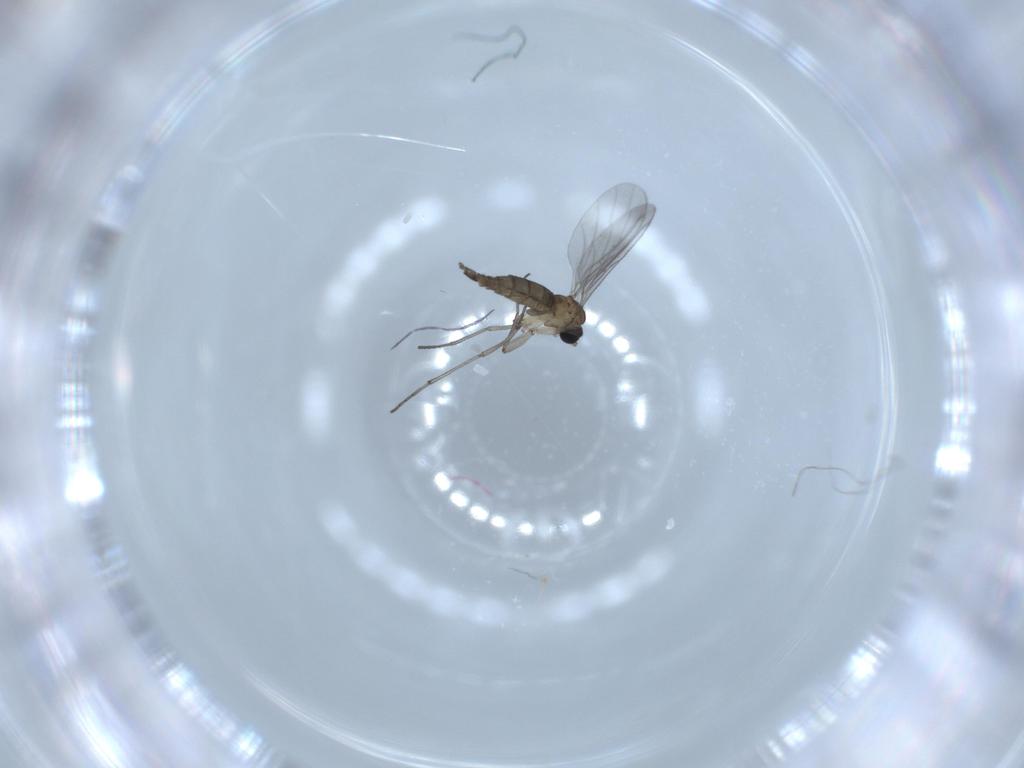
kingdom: Animalia
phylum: Arthropoda
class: Insecta
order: Diptera
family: Sciaridae
